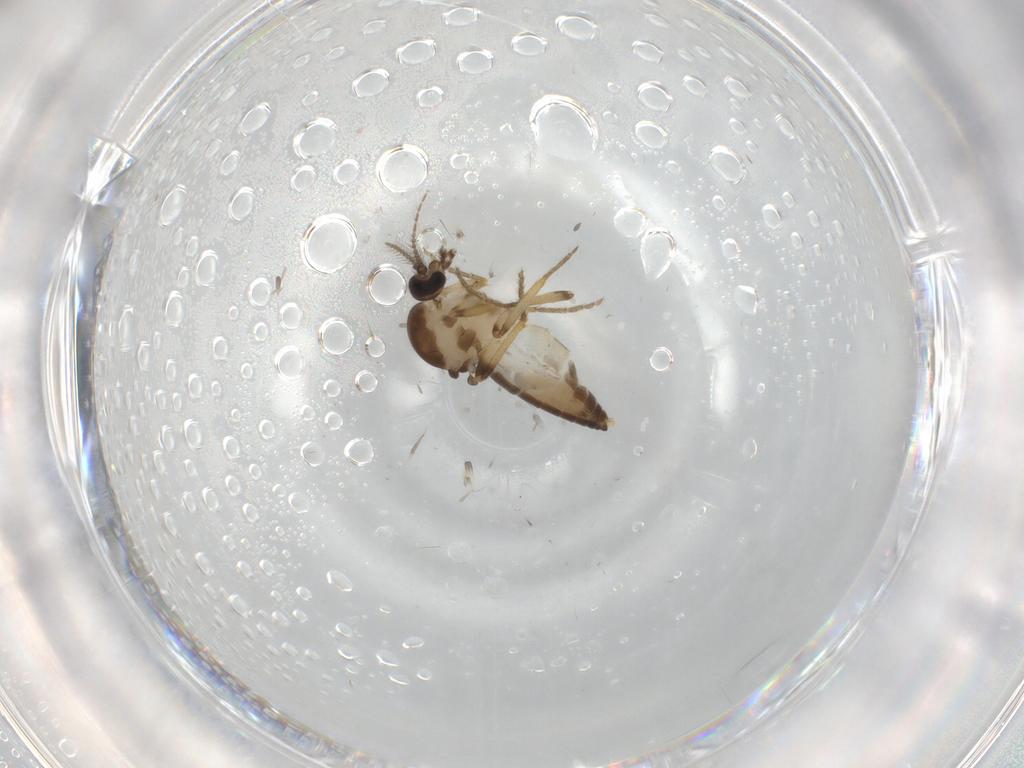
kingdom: Animalia
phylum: Arthropoda
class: Insecta
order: Diptera
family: Ceratopogonidae
